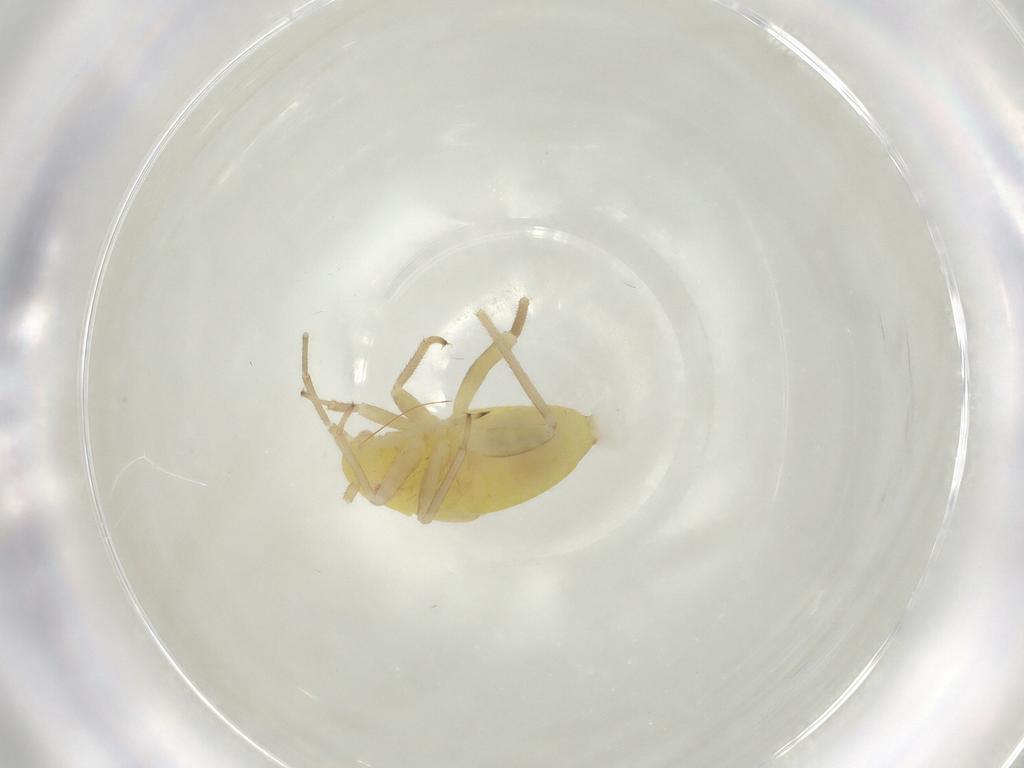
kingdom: Animalia
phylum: Arthropoda
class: Insecta
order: Hemiptera
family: Miridae
